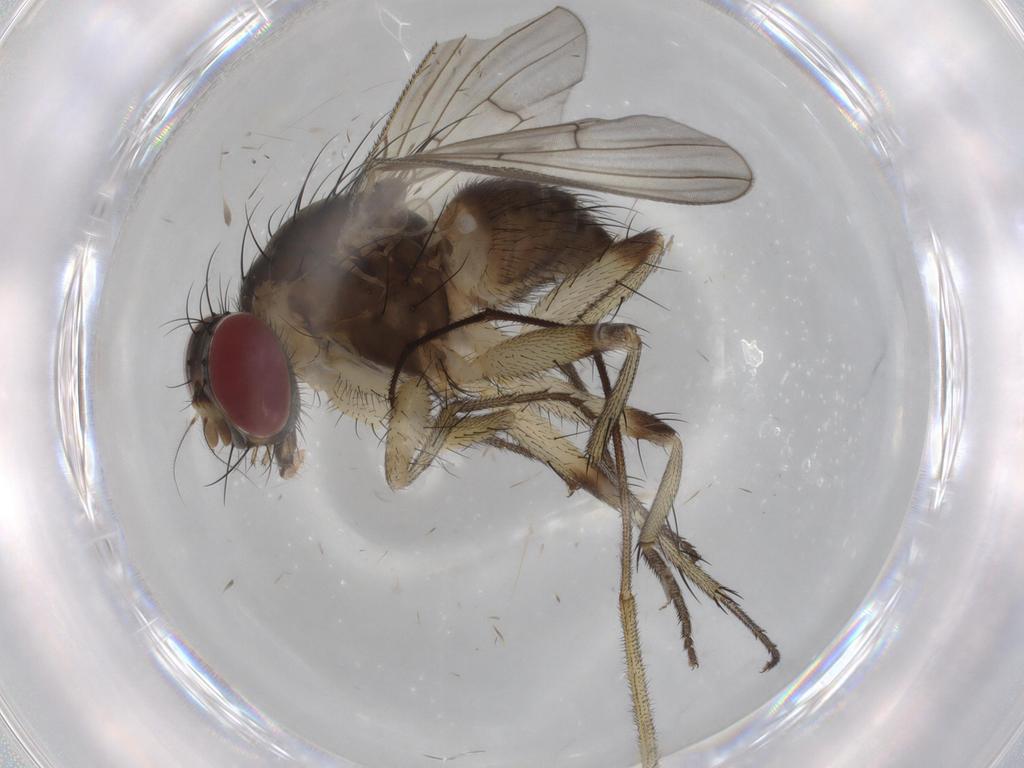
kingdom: Animalia
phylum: Arthropoda
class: Insecta
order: Diptera
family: Muscidae
